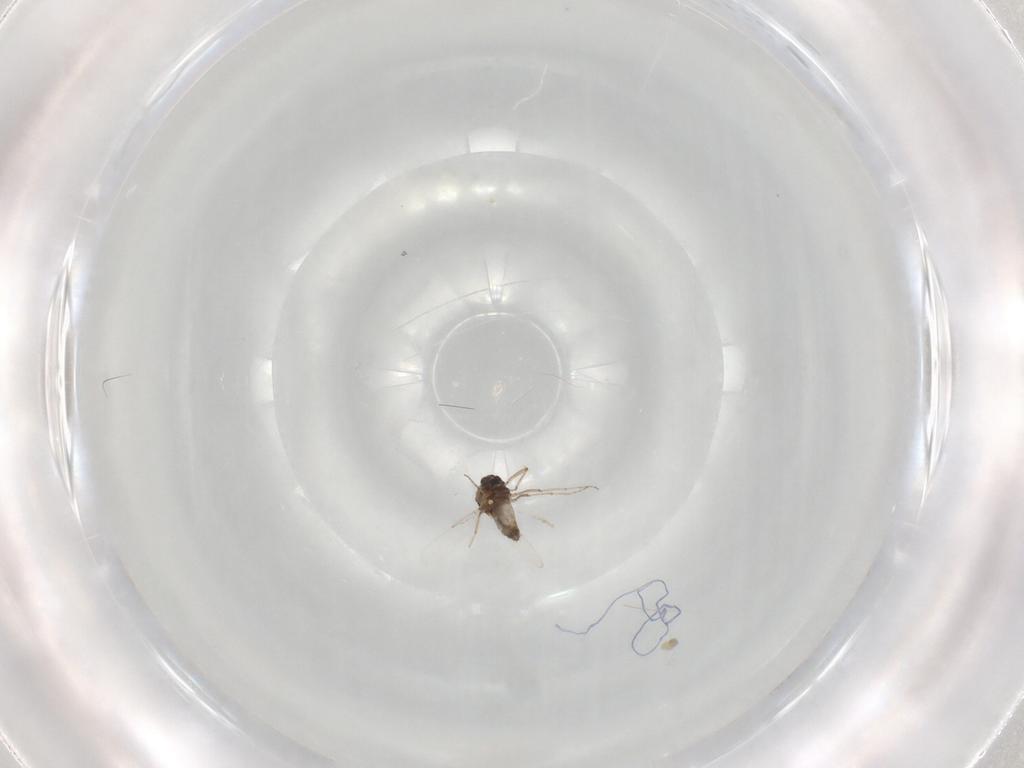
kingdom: Animalia
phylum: Arthropoda
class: Insecta
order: Diptera
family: Ceratopogonidae
